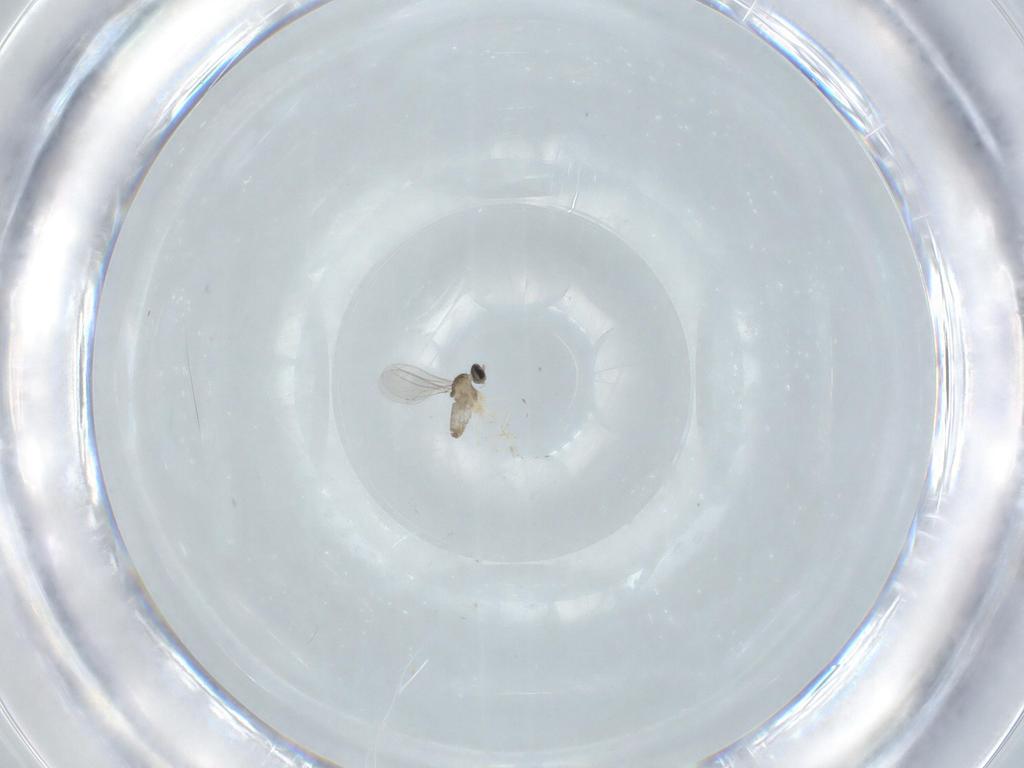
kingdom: Animalia
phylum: Arthropoda
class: Insecta
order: Diptera
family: Cecidomyiidae
